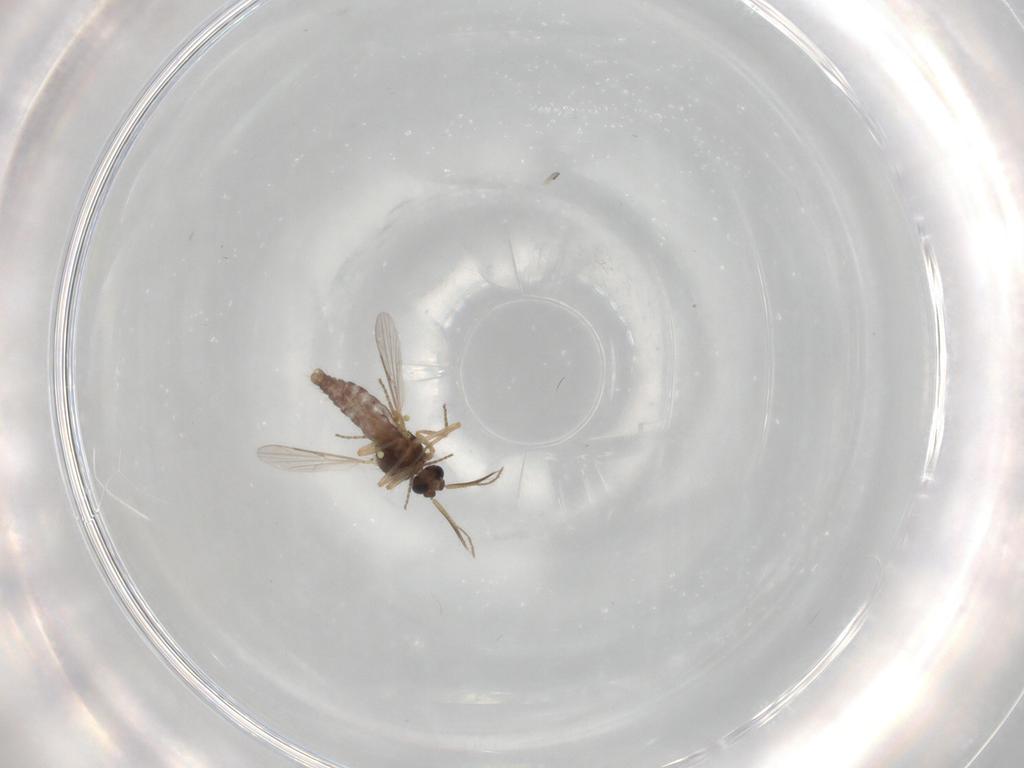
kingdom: Animalia
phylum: Arthropoda
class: Insecta
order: Diptera
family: Ceratopogonidae
